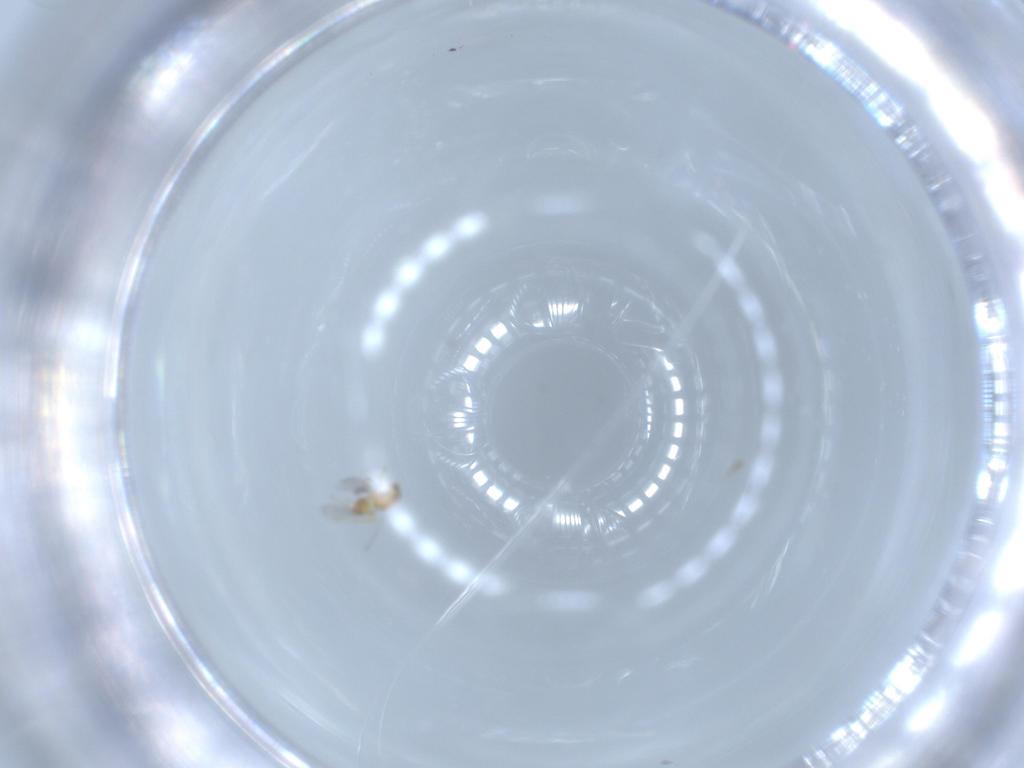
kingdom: Animalia
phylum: Arthropoda
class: Insecta
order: Hymenoptera
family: Mymaridae
